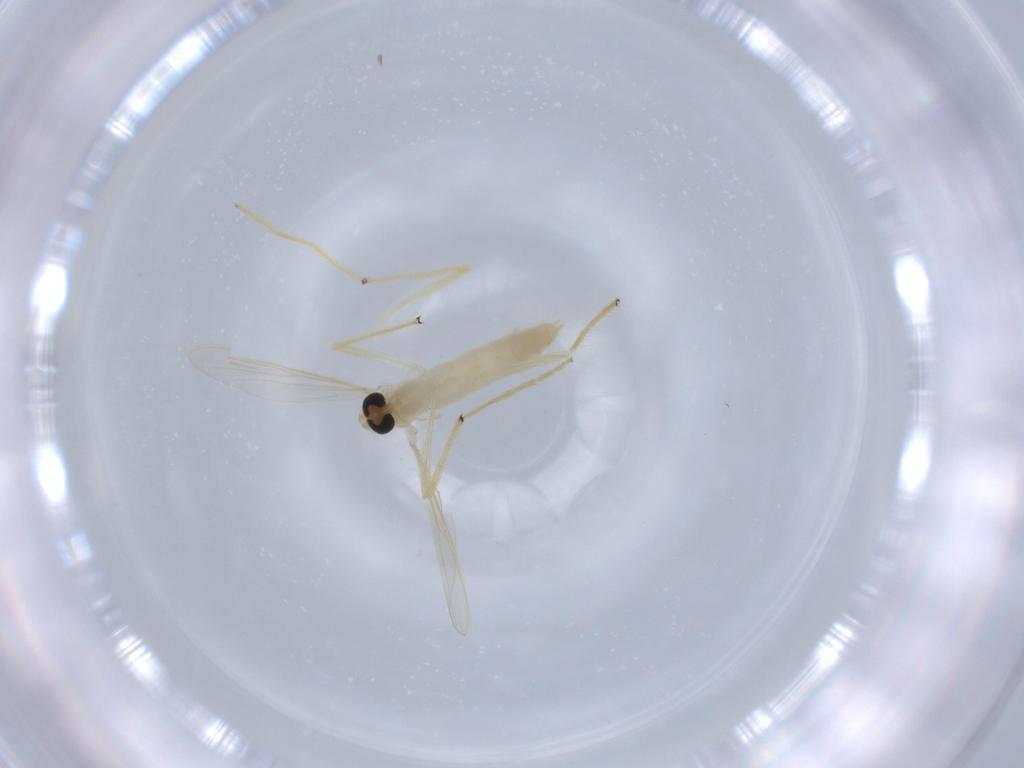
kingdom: Animalia
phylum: Arthropoda
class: Insecta
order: Diptera
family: Chironomidae
